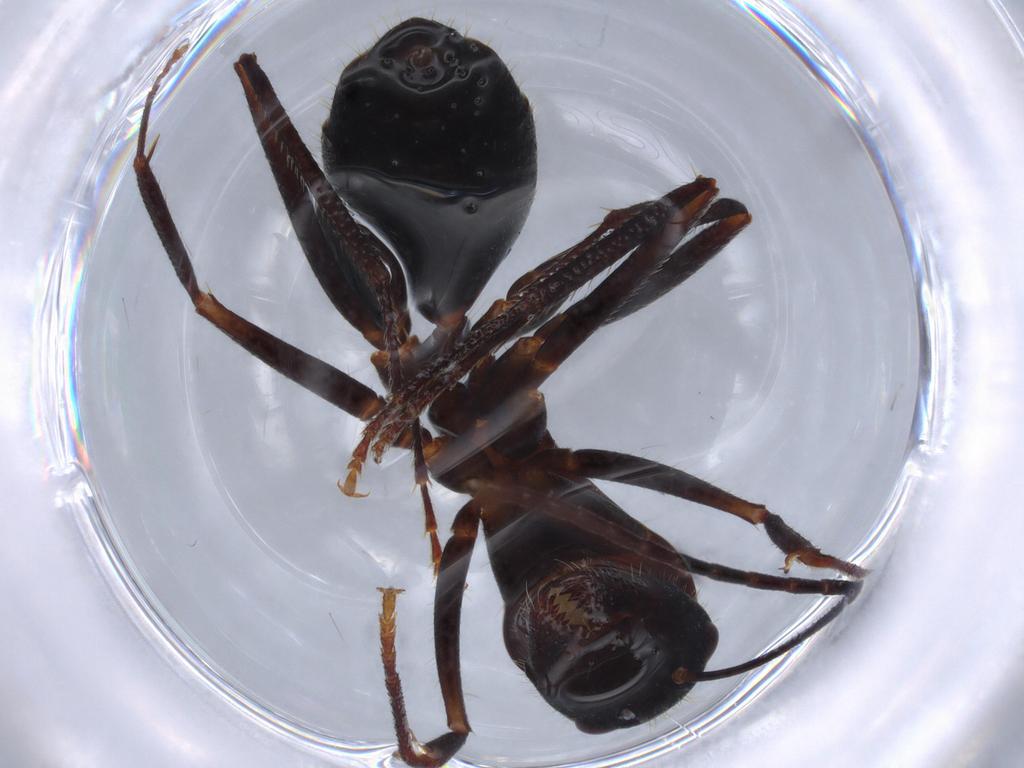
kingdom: Animalia
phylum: Arthropoda
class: Insecta
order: Hymenoptera
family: Formicidae
